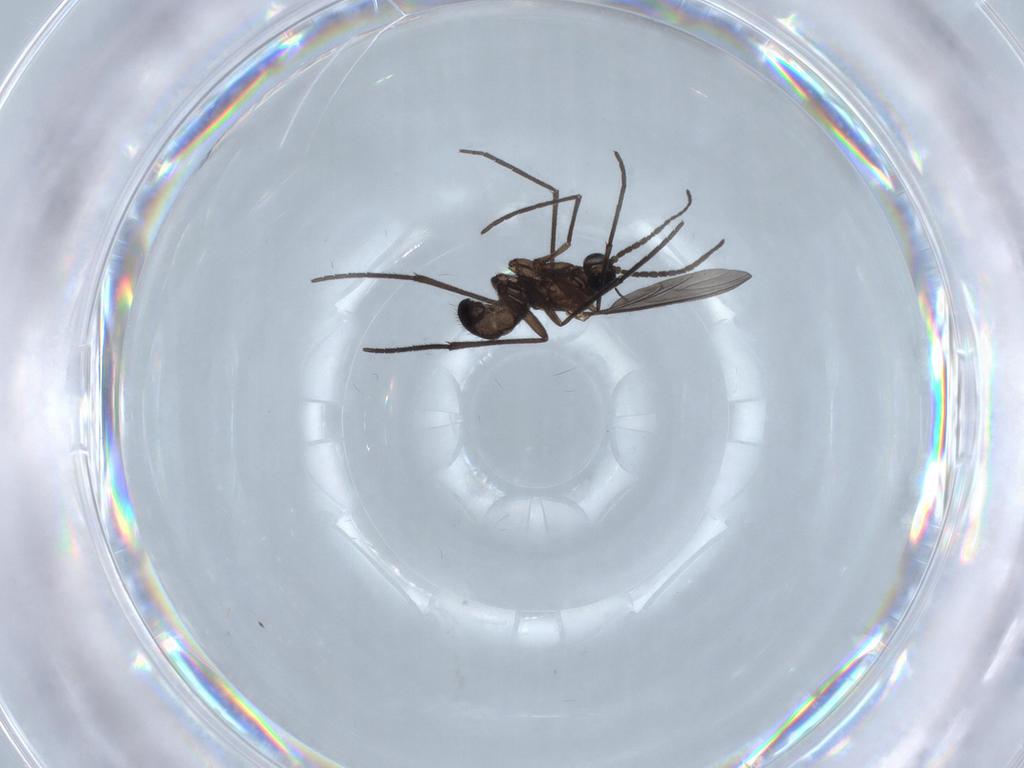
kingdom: Animalia
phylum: Arthropoda
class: Insecta
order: Diptera
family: Sciaridae
